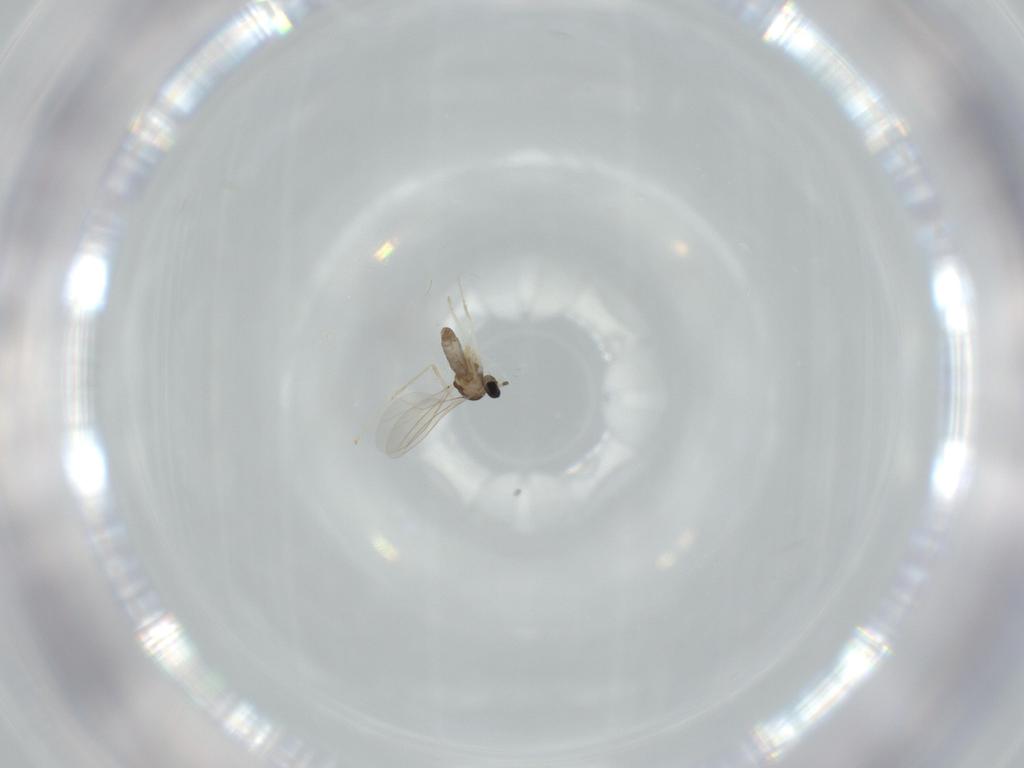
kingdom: Animalia
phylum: Arthropoda
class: Insecta
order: Diptera
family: Cecidomyiidae
